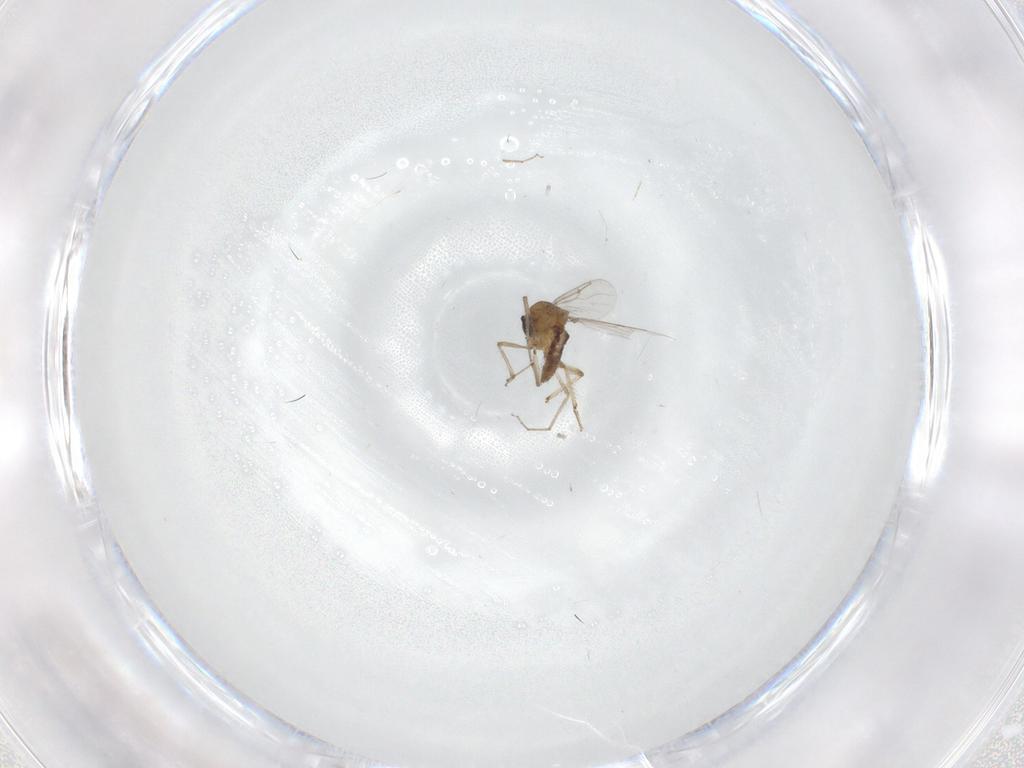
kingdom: Animalia
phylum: Arthropoda
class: Insecta
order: Diptera
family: Cecidomyiidae
